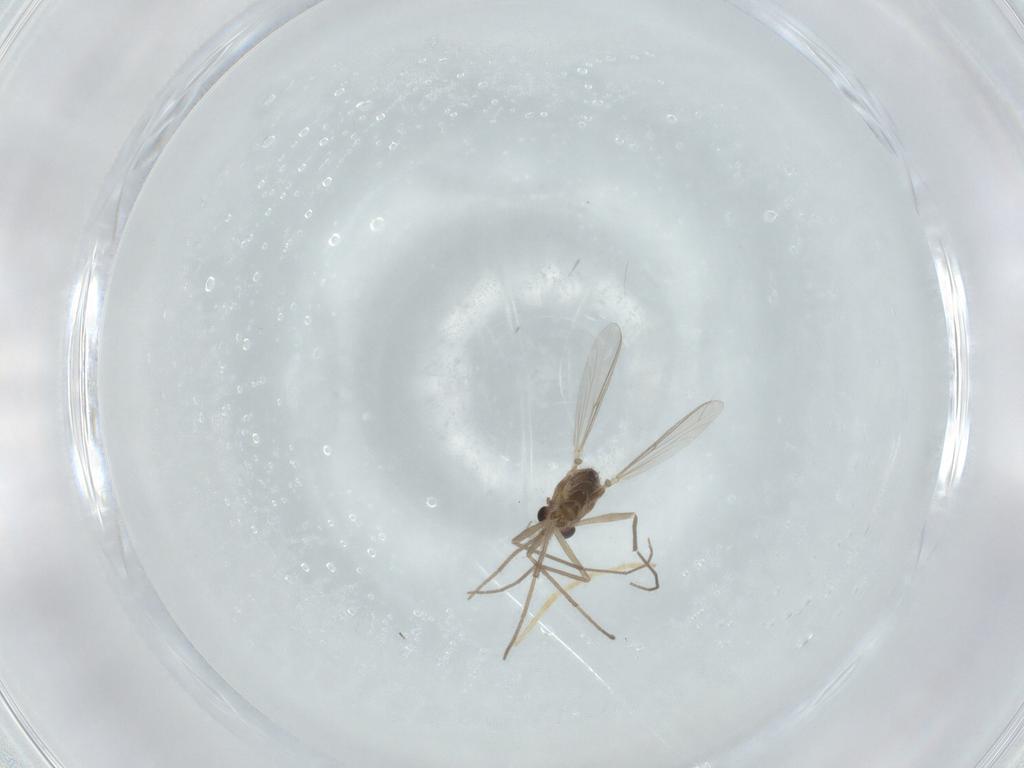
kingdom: Animalia
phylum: Arthropoda
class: Insecta
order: Diptera
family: Chironomidae
